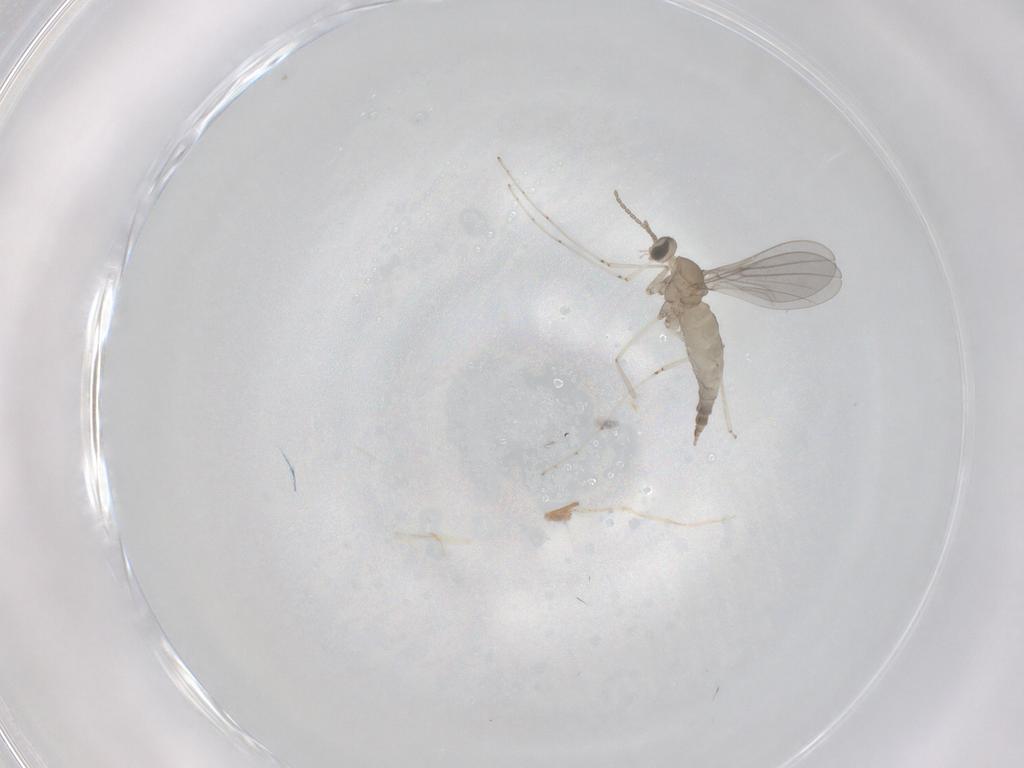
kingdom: Animalia
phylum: Arthropoda
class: Insecta
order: Diptera
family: Cecidomyiidae
